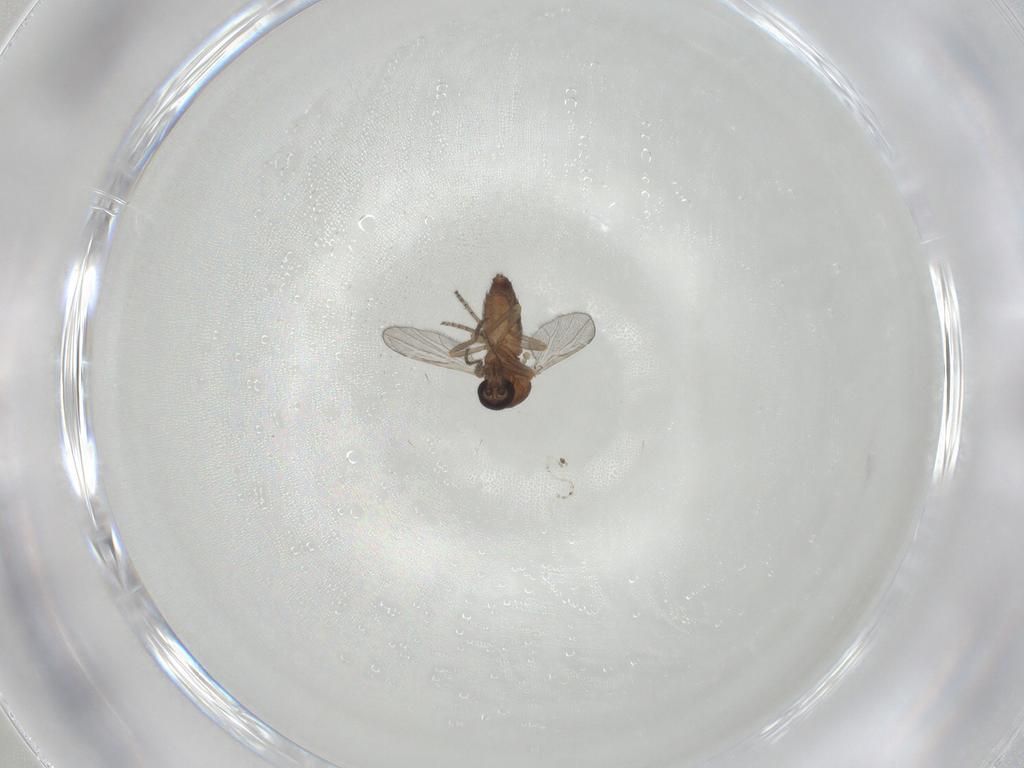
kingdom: Animalia
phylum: Arthropoda
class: Insecta
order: Diptera
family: Ceratopogonidae
